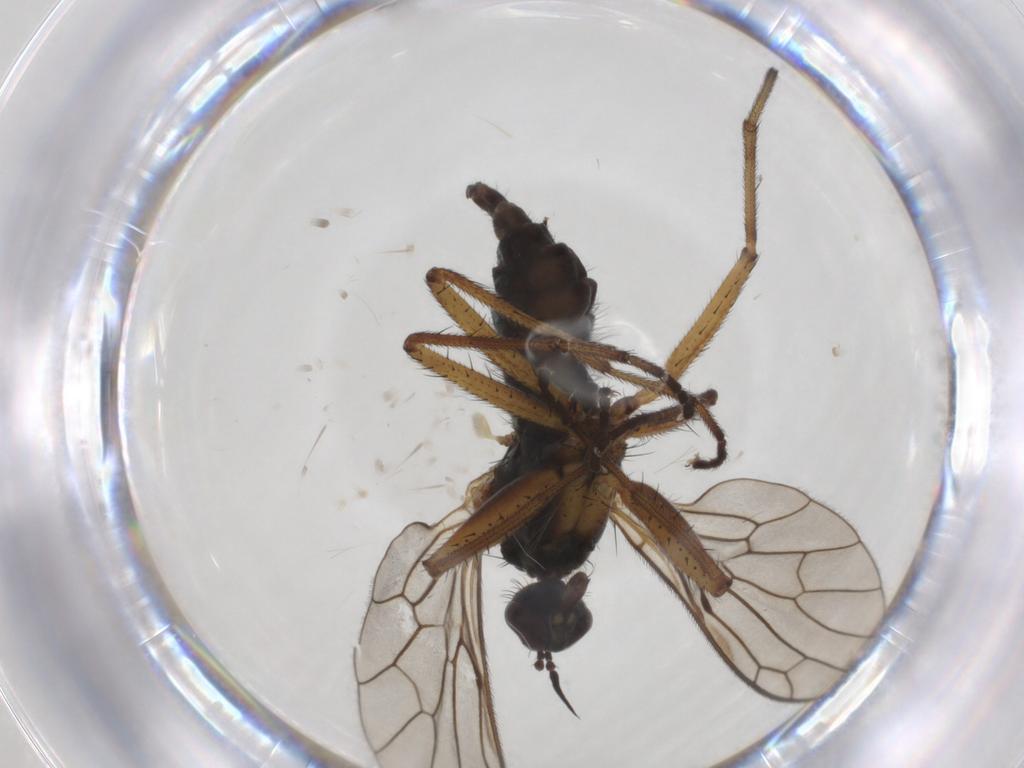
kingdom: Animalia
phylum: Arthropoda
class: Insecta
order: Diptera
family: Empididae
